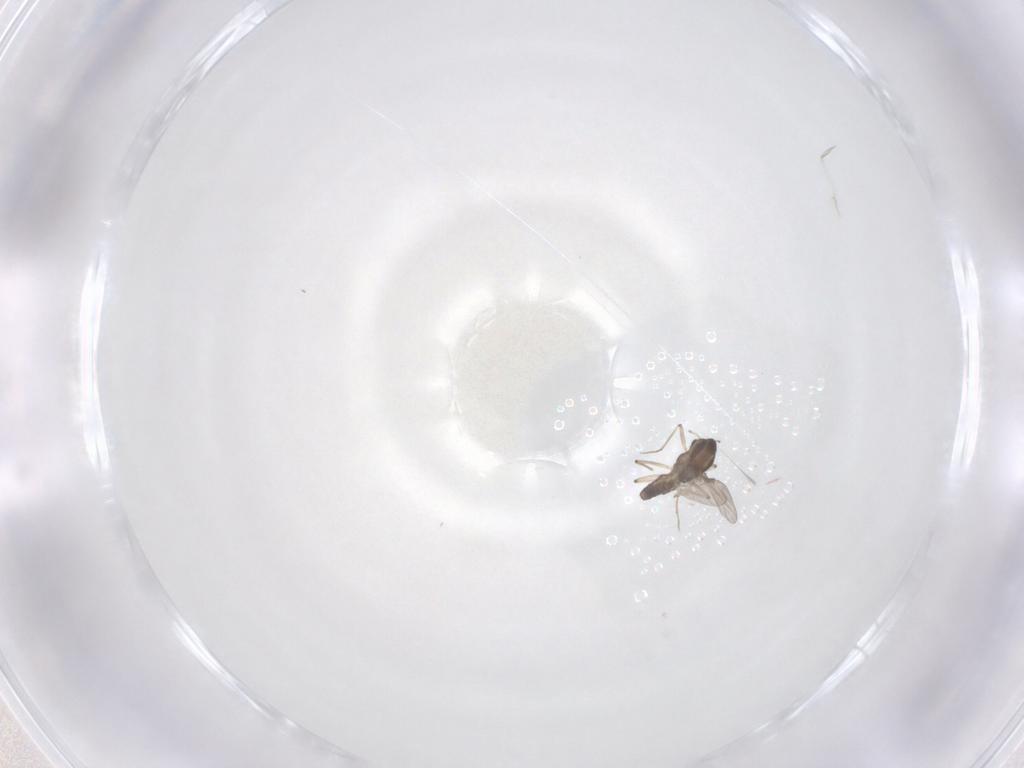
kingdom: Animalia
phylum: Arthropoda
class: Insecta
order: Diptera
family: Chironomidae
